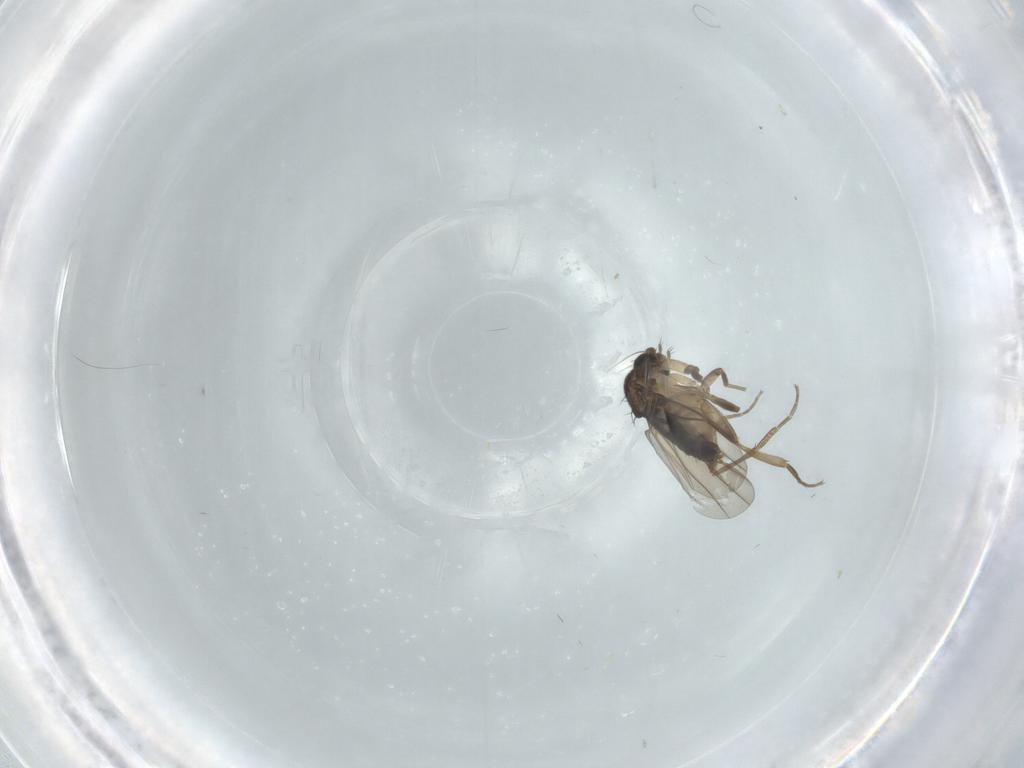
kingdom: Animalia
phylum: Arthropoda
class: Insecta
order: Diptera
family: Phoridae
